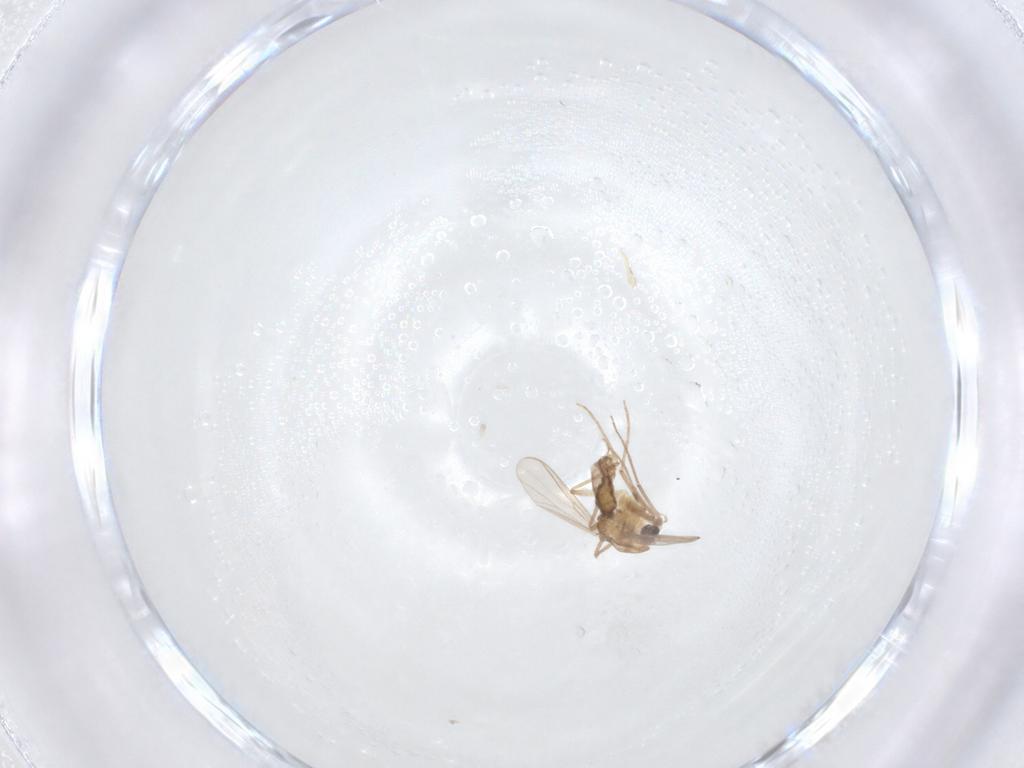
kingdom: Animalia
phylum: Arthropoda
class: Insecta
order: Diptera
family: Chironomidae
